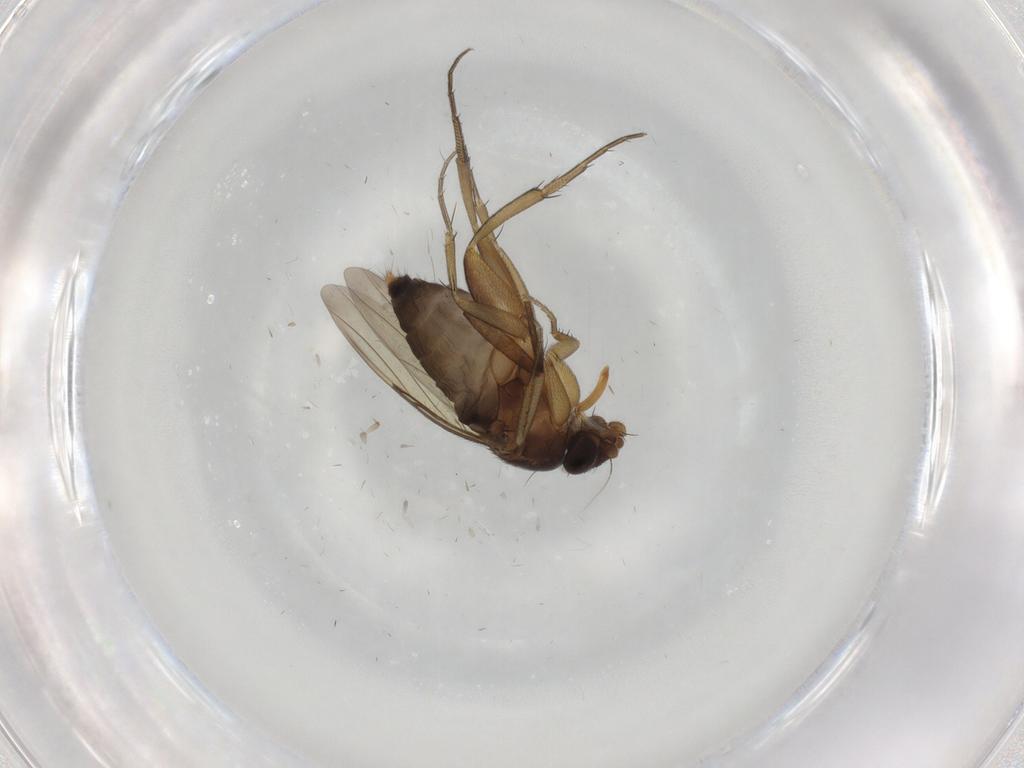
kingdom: Animalia
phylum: Arthropoda
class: Insecta
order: Diptera
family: Phoridae
